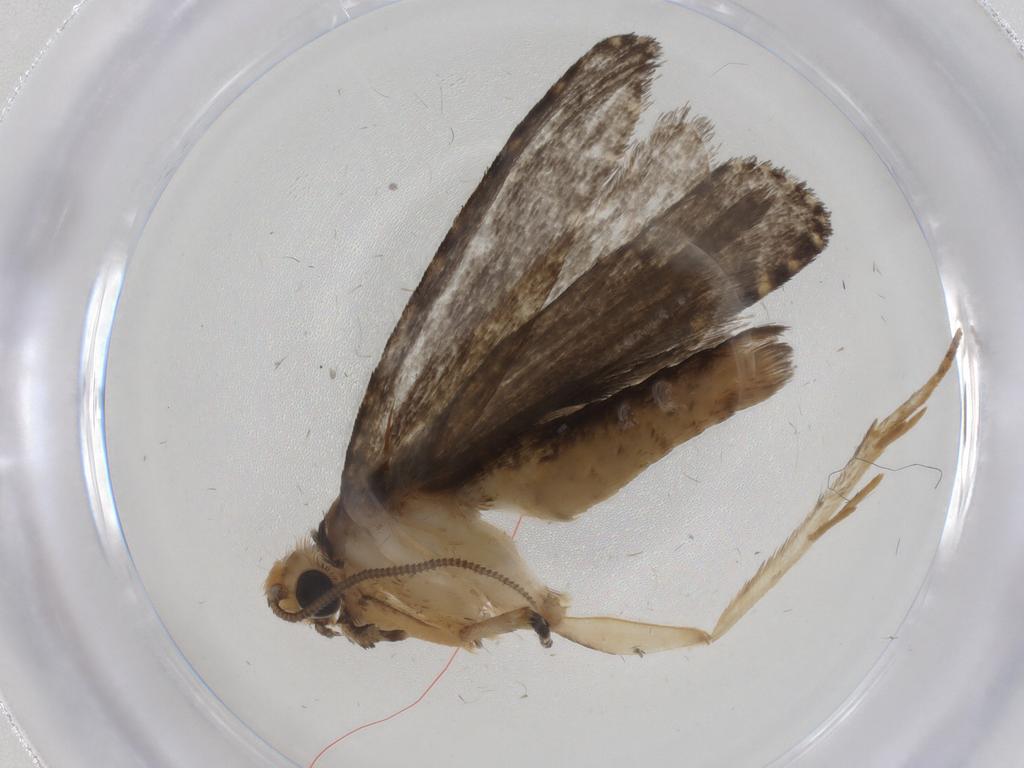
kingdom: Animalia
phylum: Arthropoda
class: Insecta
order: Lepidoptera
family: Tineidae
